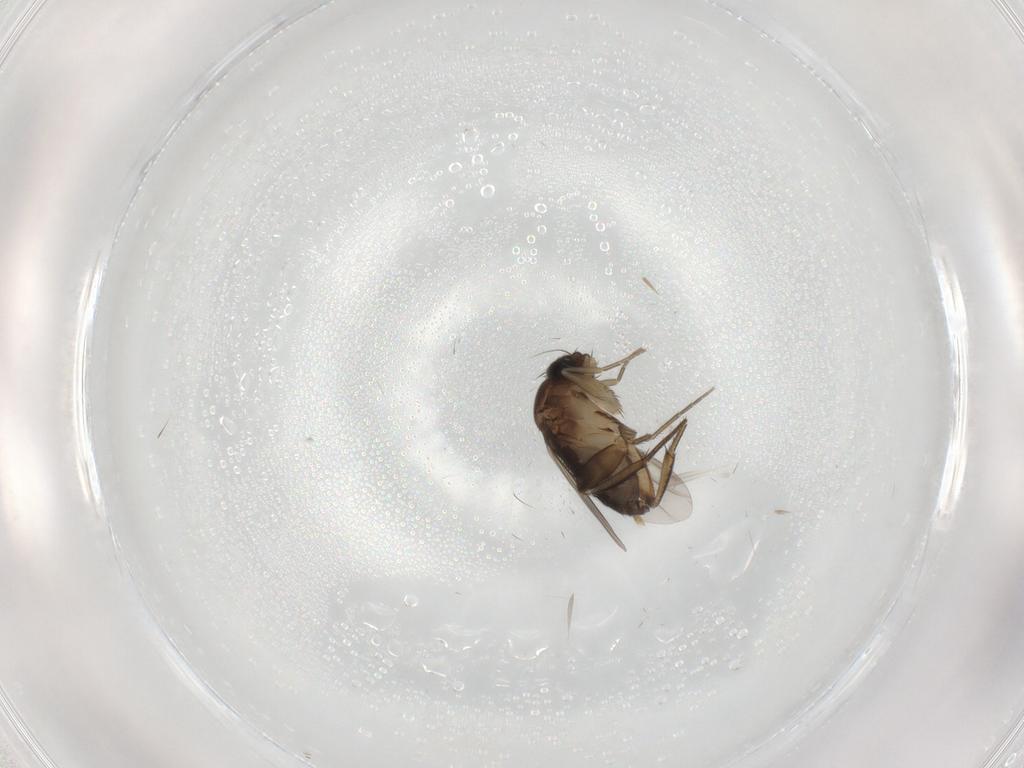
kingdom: Animalia
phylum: Arthropoda
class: Insecta
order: Diptera
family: Phoridae
